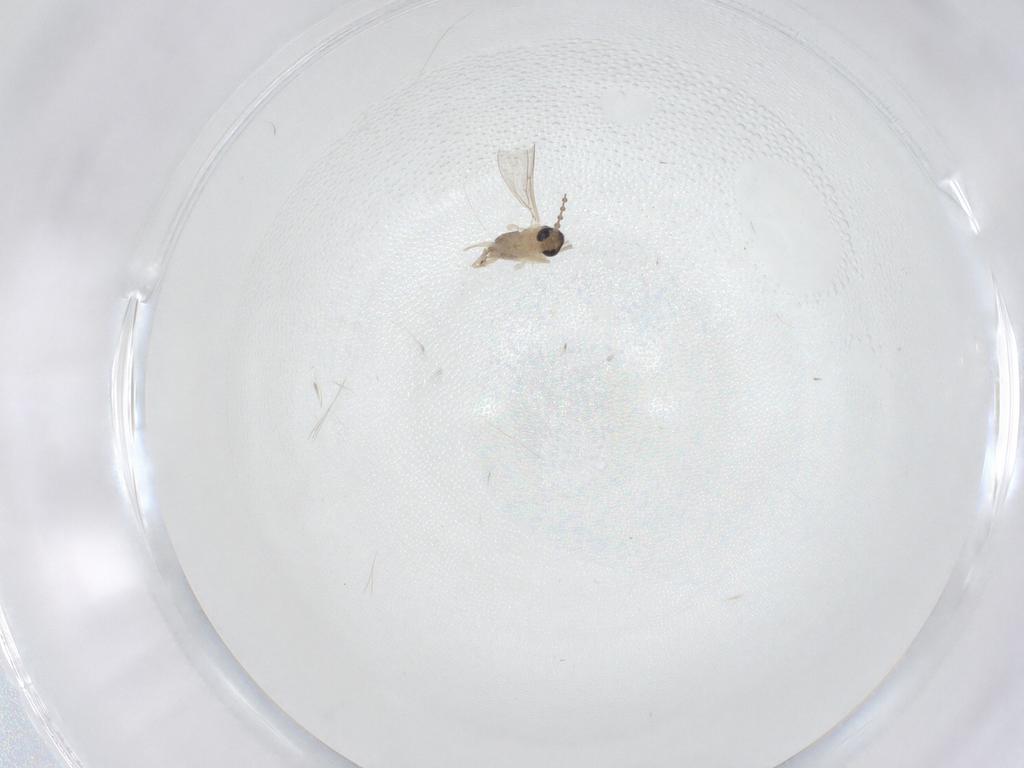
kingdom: Animalia
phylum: Arthropoda
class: Insecta
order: Diptera
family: Cecidomyiidae
